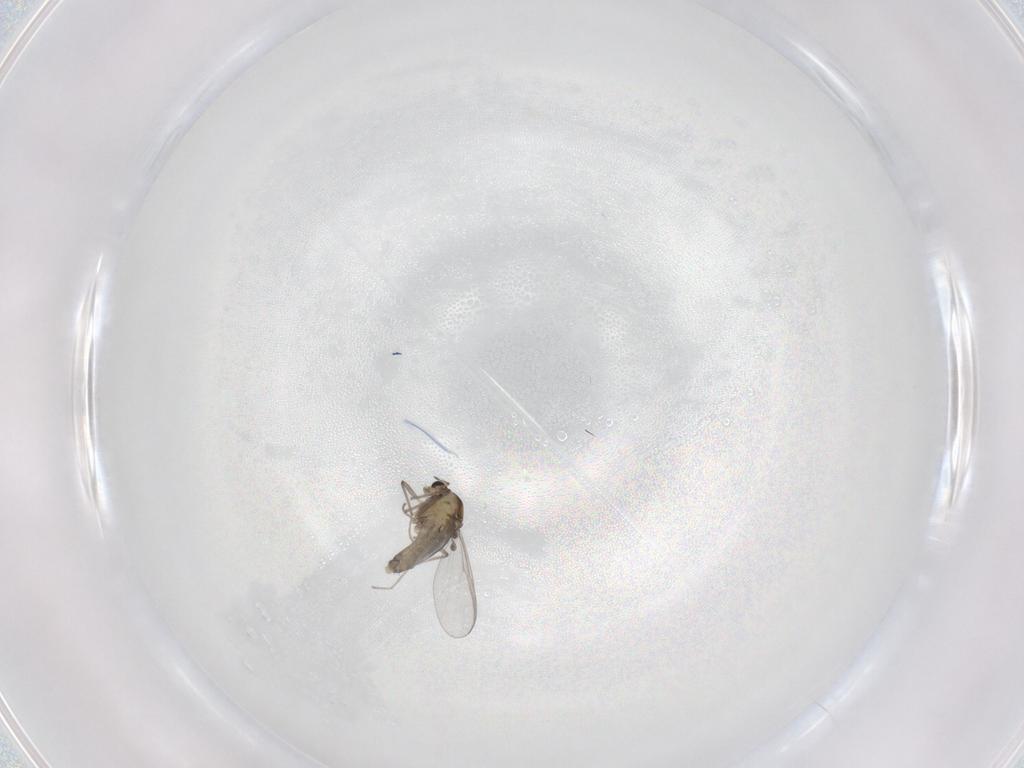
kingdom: Animalia
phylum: Arthropoda
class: Insecta
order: Diptera
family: Chironomidae
